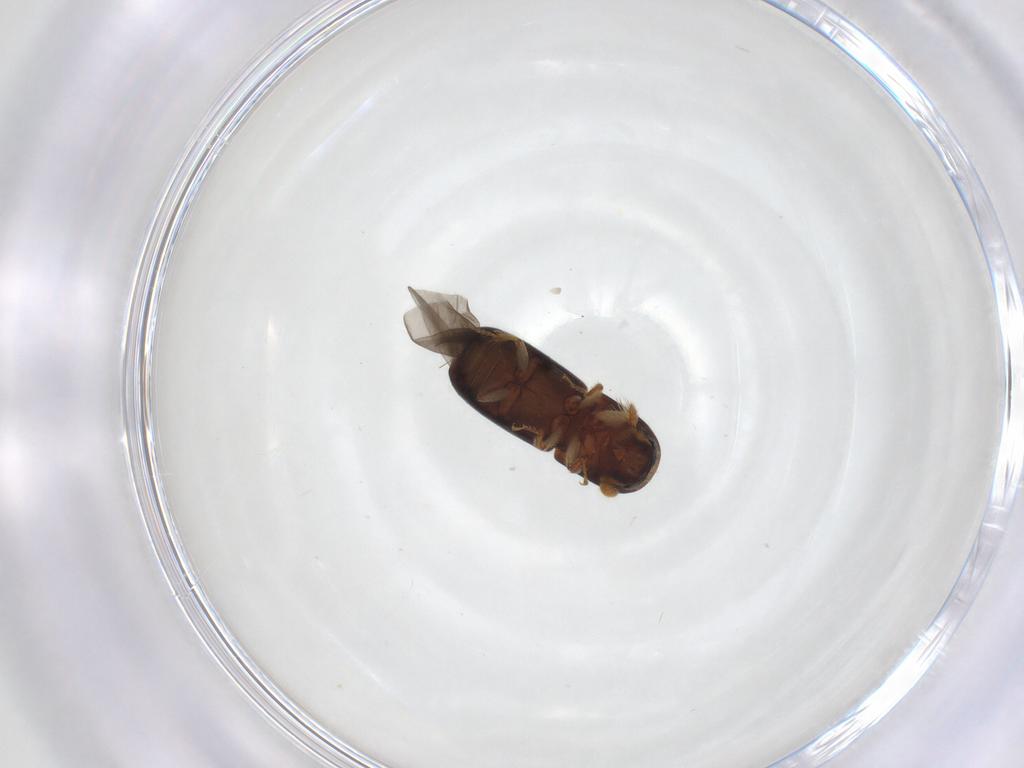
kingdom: Animalia
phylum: Arthropoda
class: Insecta
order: Coleoptera
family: Curculionidae
